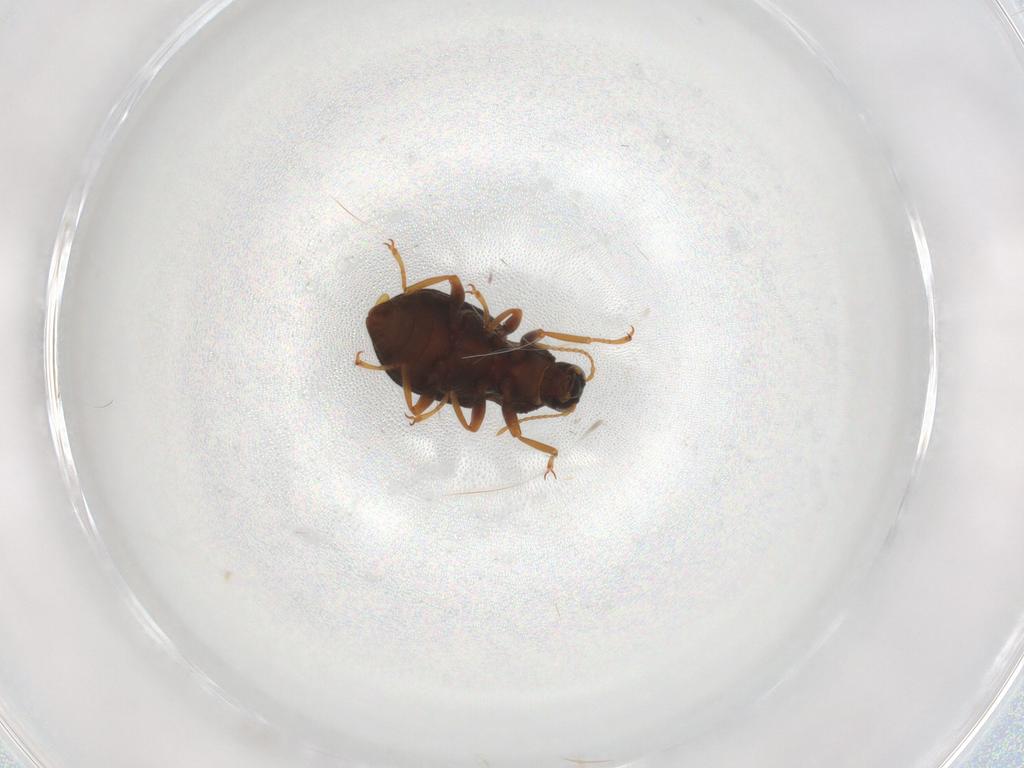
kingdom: Animalia
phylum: Arthropoda
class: Insecta
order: Coleoptera
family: Elmidae
